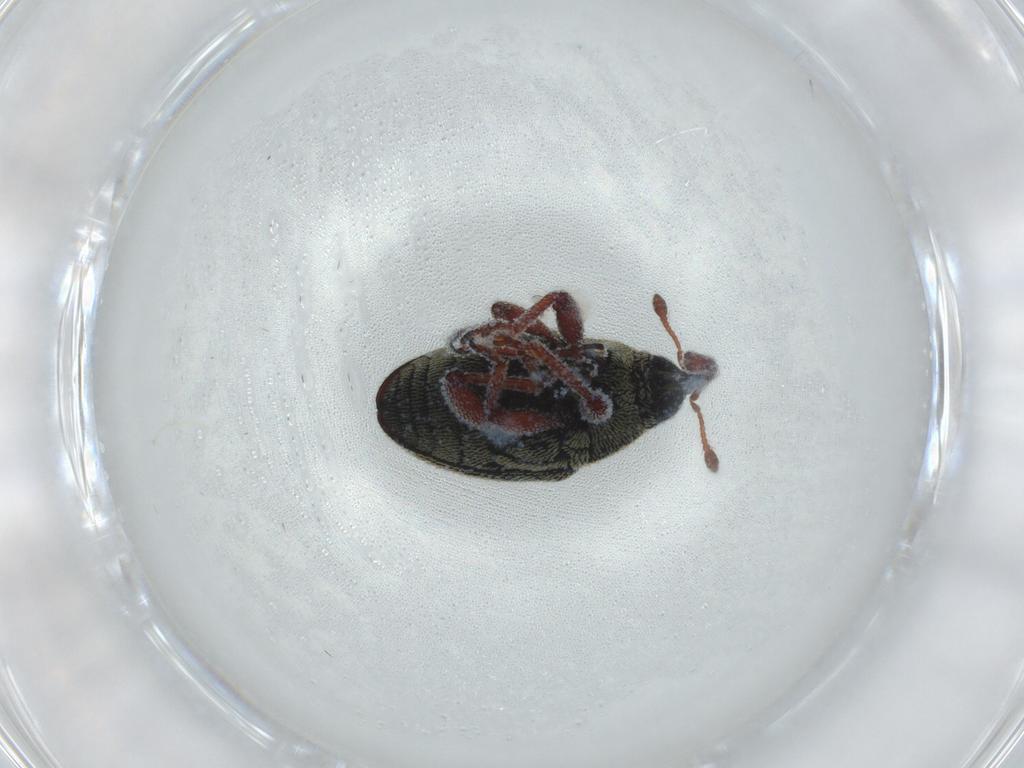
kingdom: Animalia
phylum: Arthropoda
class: Insecta
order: Coleoptera
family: Curculionidae
